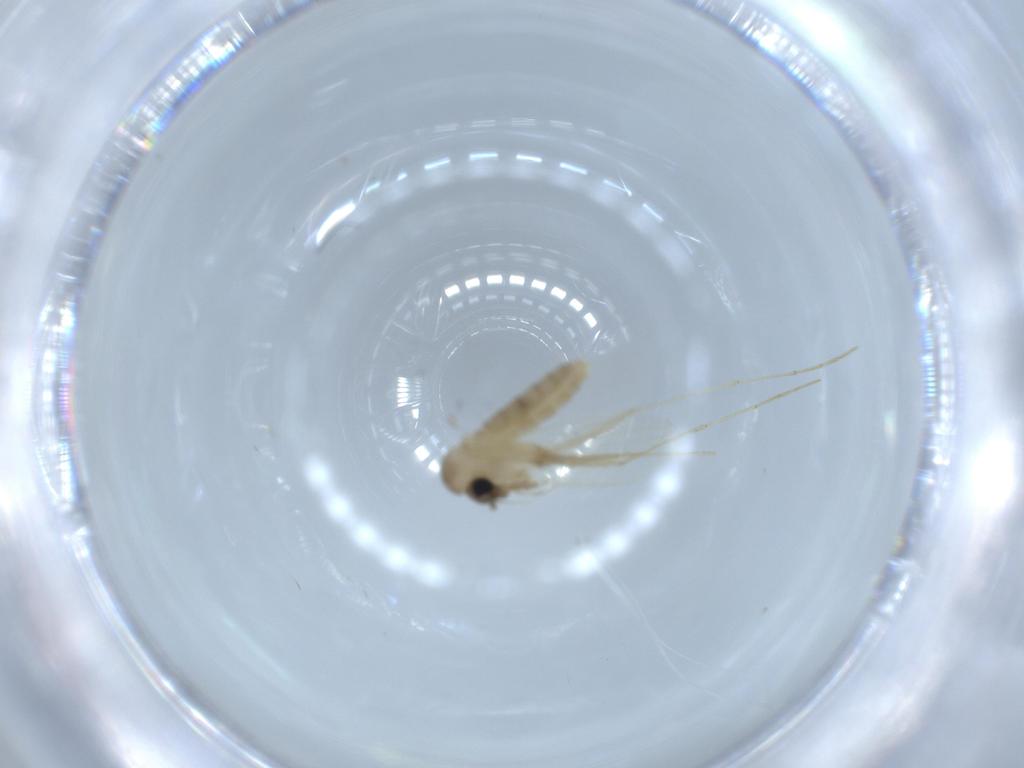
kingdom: Animalia
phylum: Arthropoda
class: Insecta
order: Diptera
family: Psychodidae
